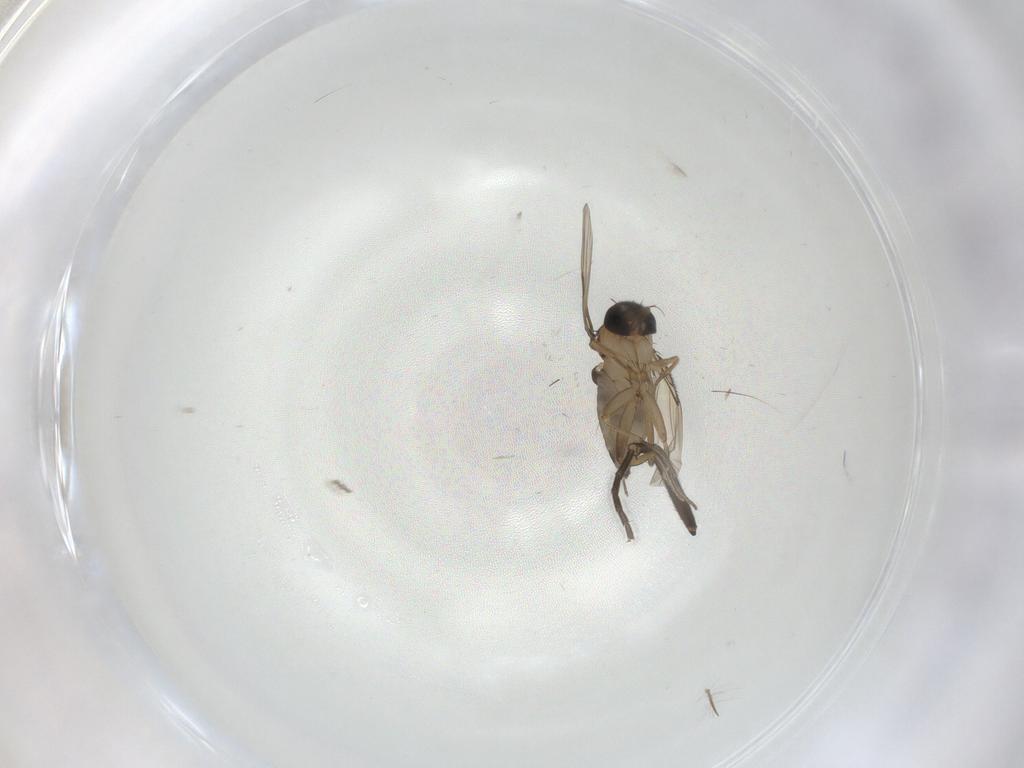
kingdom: Animalia
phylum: Arthropoda
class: Insecta
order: Diptera
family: Phoridae
